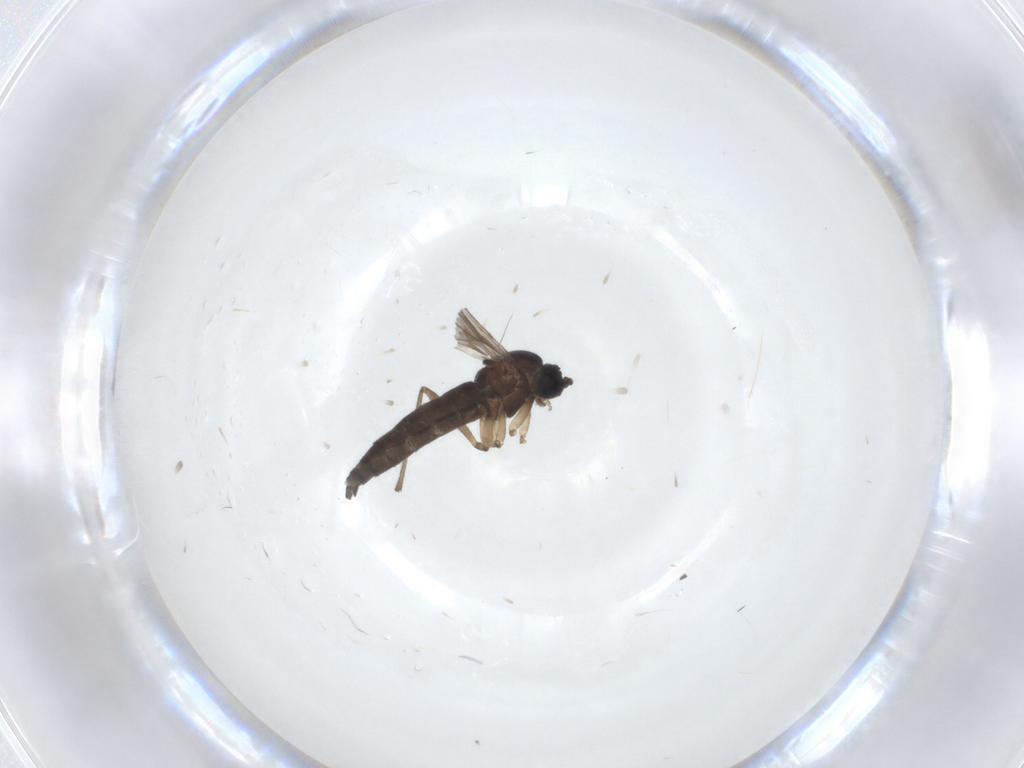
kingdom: Animalia
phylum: Arthropoda
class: Insecta
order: Diptera
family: Sciaridae
